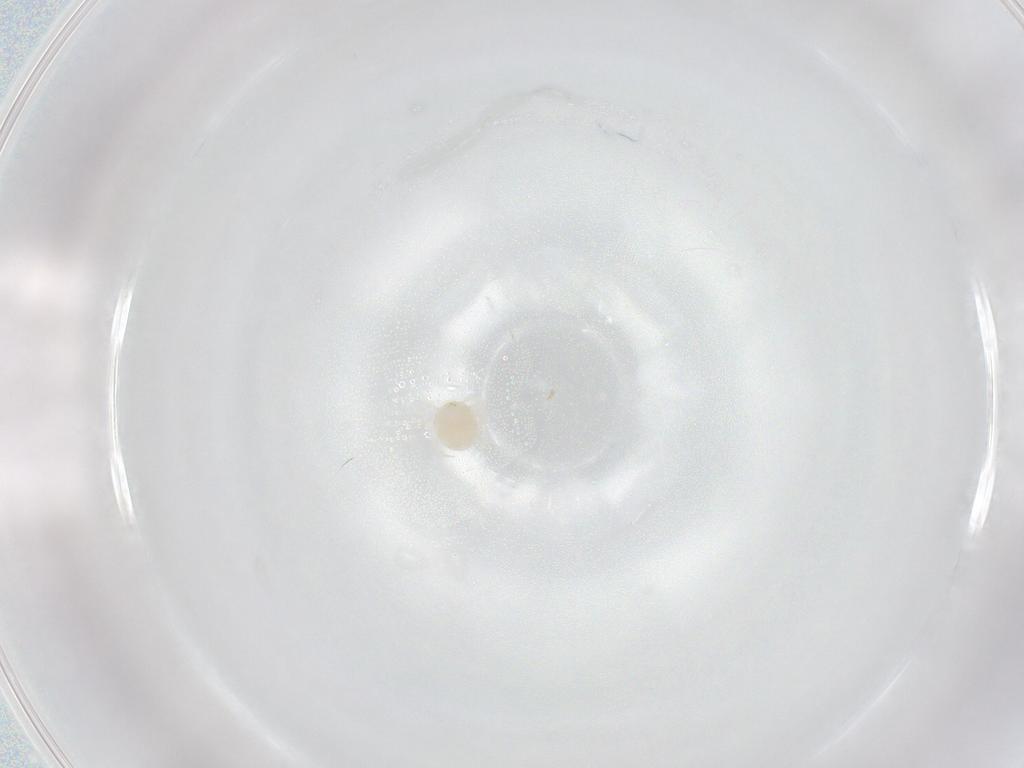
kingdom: Animalia
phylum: Arthropoda
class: Arachnida
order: Trombidiformes
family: Hydryphantidae
